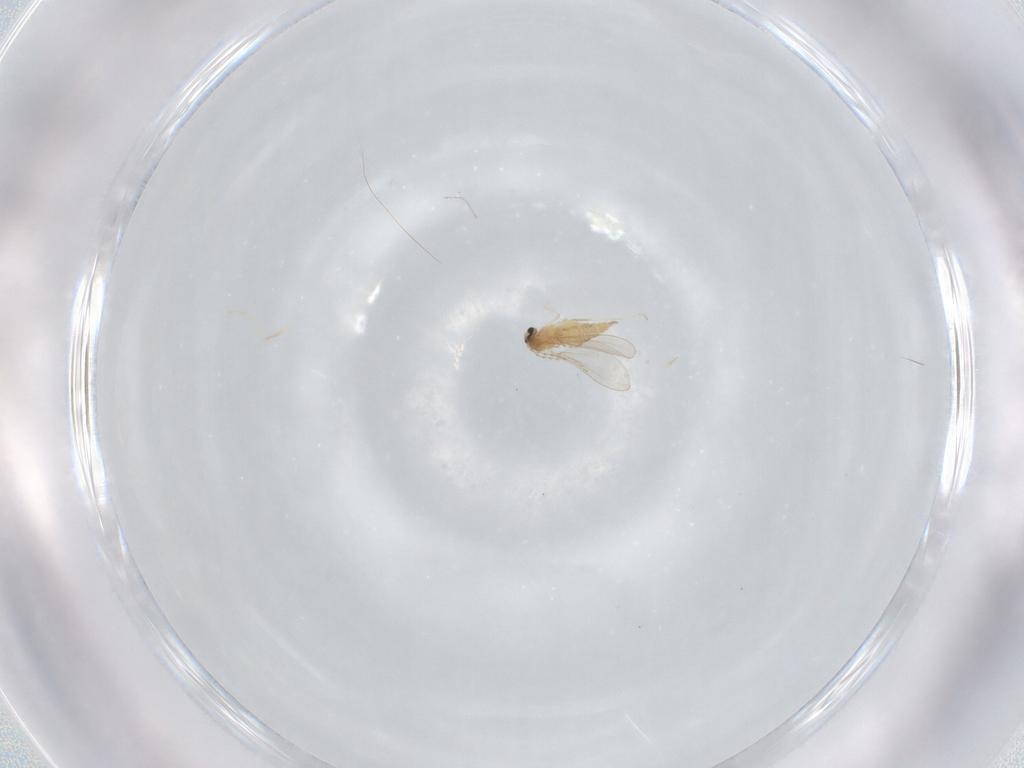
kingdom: Animalia
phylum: Arthropoda
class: Insecta
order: Diptera
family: Cecidomyiidae
